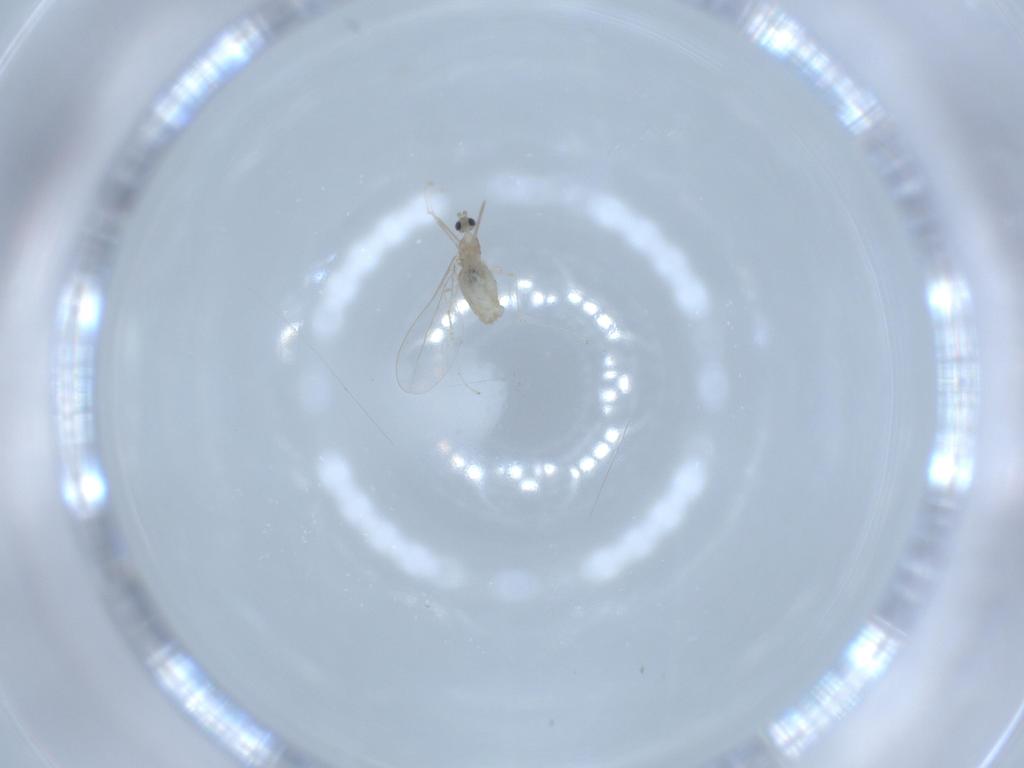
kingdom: Animalia
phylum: Arthropoda
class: Insecta
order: Diptera
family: Cecidomyiidae
